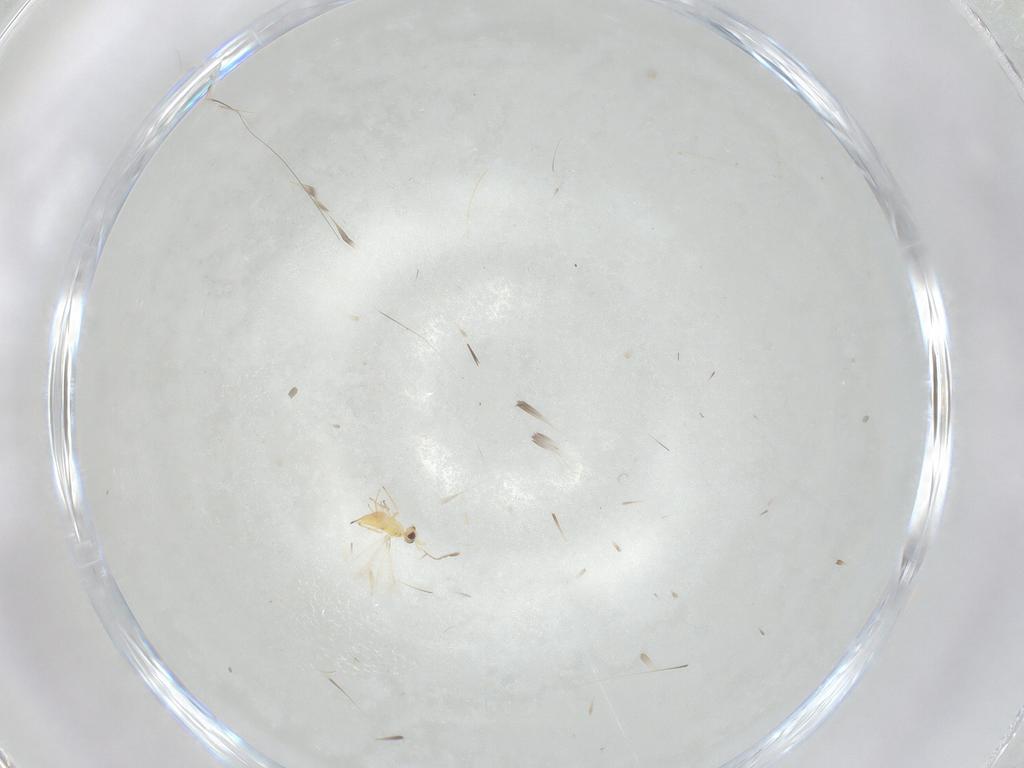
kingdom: Animalia
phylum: Arthropoda
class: Insecta
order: Diptera
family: Cecidomyiidae
